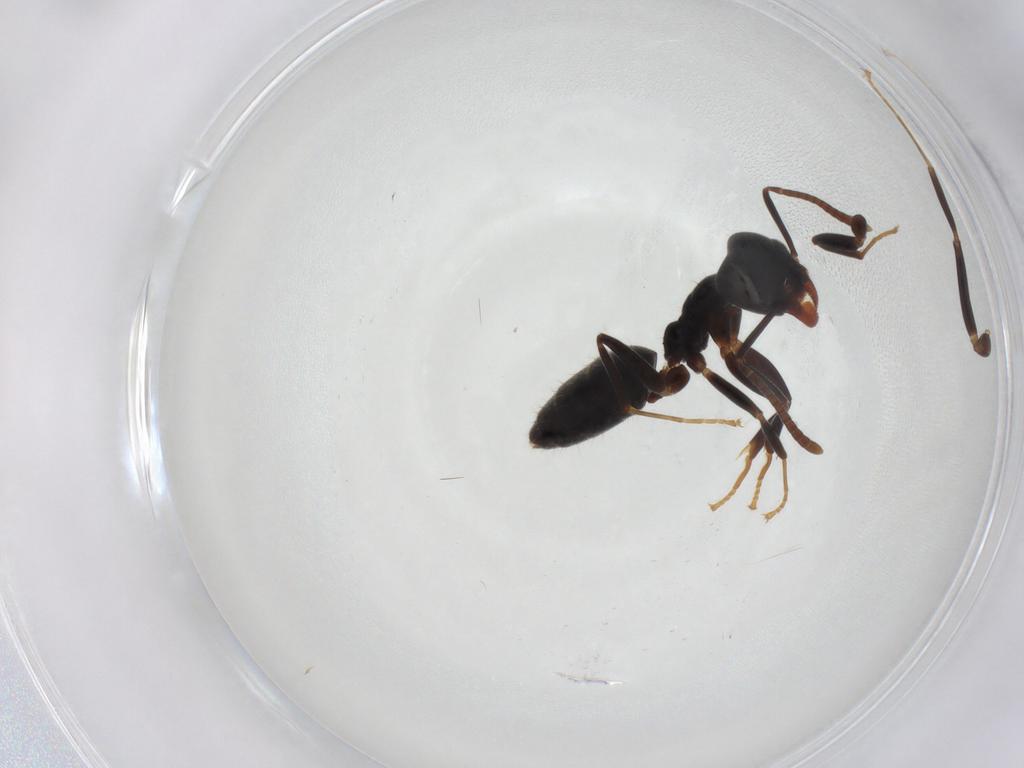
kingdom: Animalia
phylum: Arthropoda
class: Insecta
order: Hymenoptera
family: Formicidae
